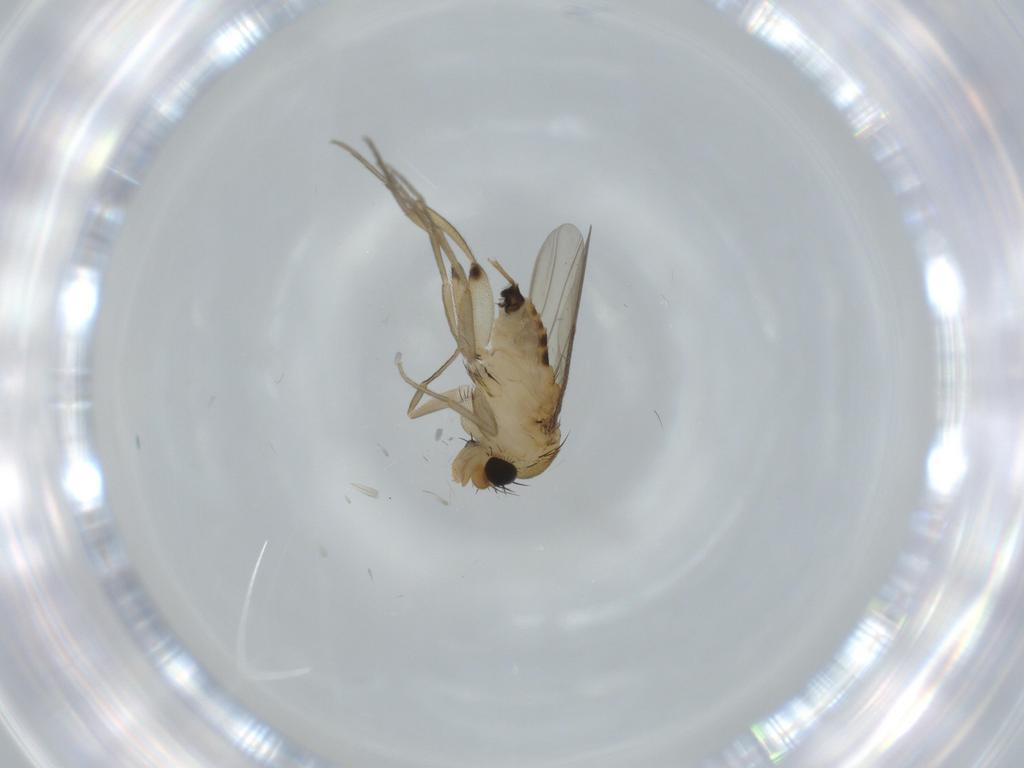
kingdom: Animalia
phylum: Arthropoda
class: Insecta
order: Diptera
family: Phoridae
